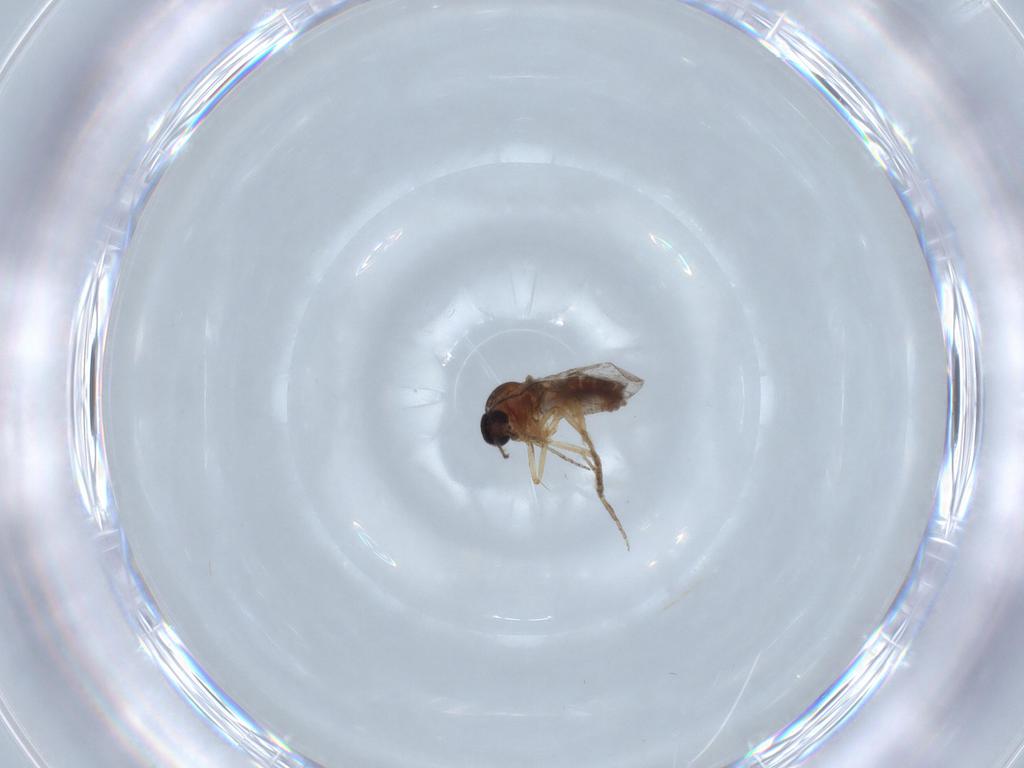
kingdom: Animalia
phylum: Arthropoda
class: Insecta
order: Diptera
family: Ceratopogonidae
